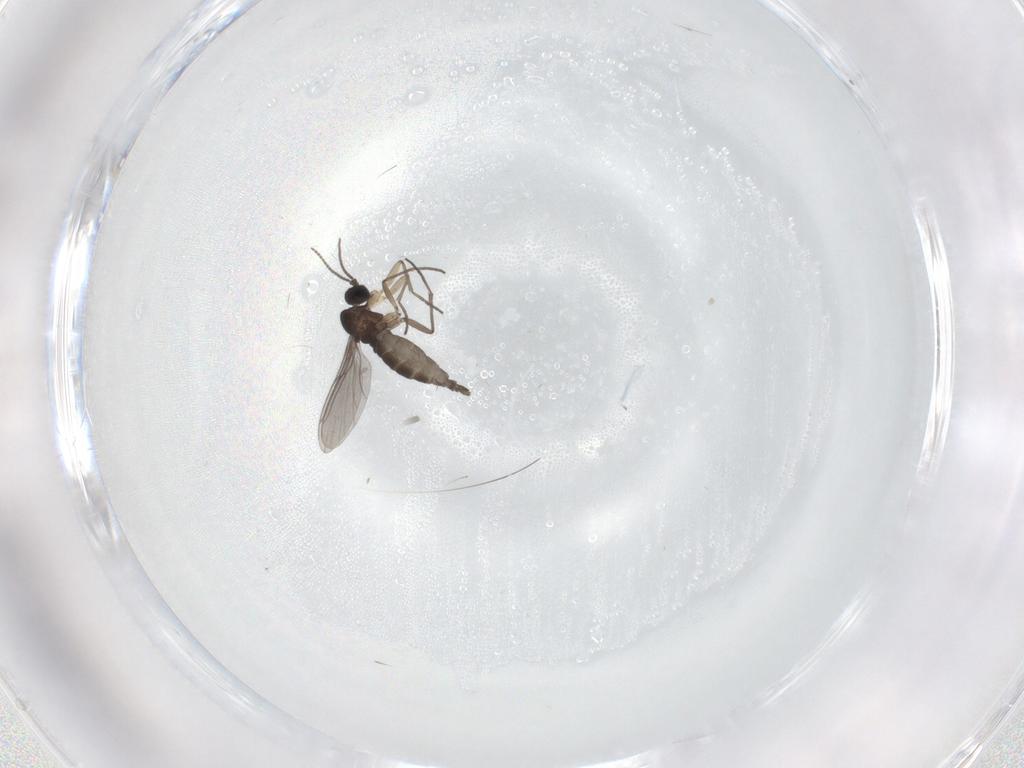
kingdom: Animalia
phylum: Arthropoda
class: Insecta
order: Diptera
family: Sciaridae
